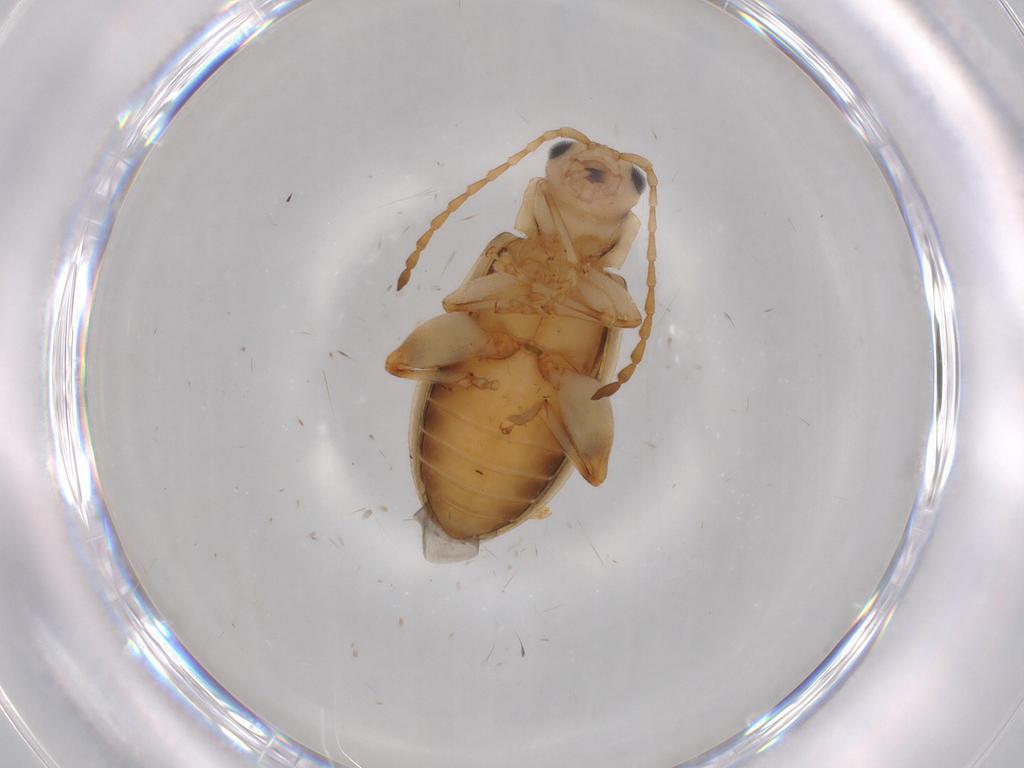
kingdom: Animalia
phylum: Arthropoda
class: Insecta
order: Coleoptera
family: Chrysomelidae
